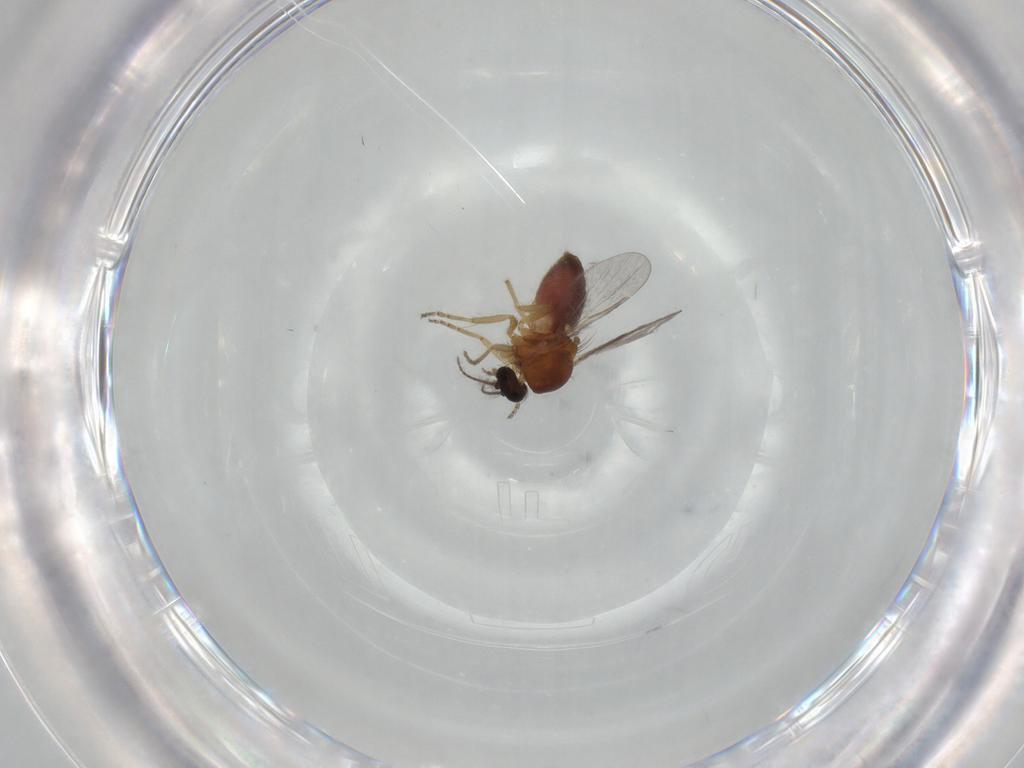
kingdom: Animalia
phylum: Arthropoda
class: Insecta
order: Diptera
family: Ceratopogonidae
